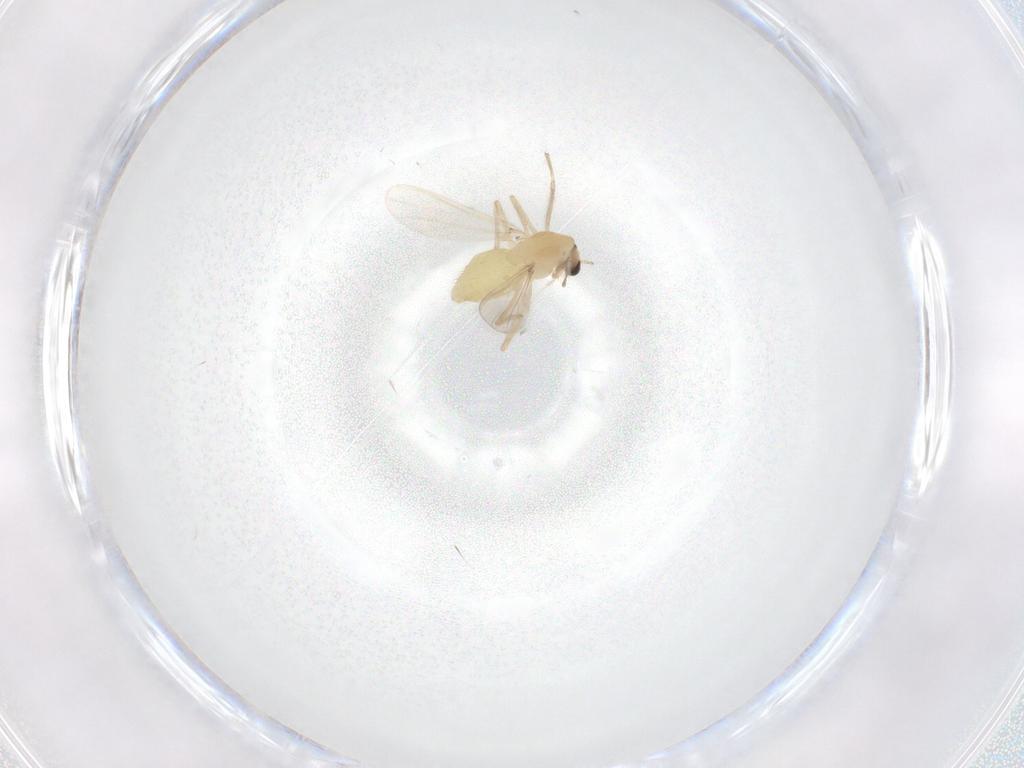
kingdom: Animalia
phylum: Arthropoda
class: Insecta
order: Diptera
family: Chironomidae
